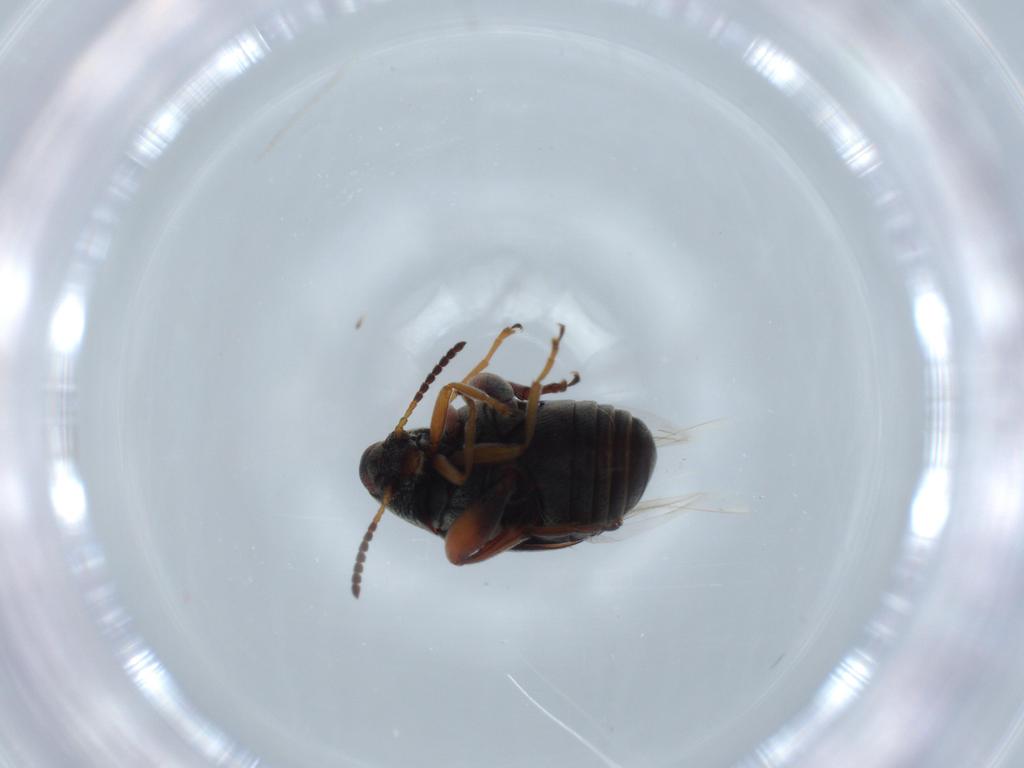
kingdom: Animalia
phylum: Arthropoda
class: Insecta
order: Coleoptera
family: Chrysomelidae
